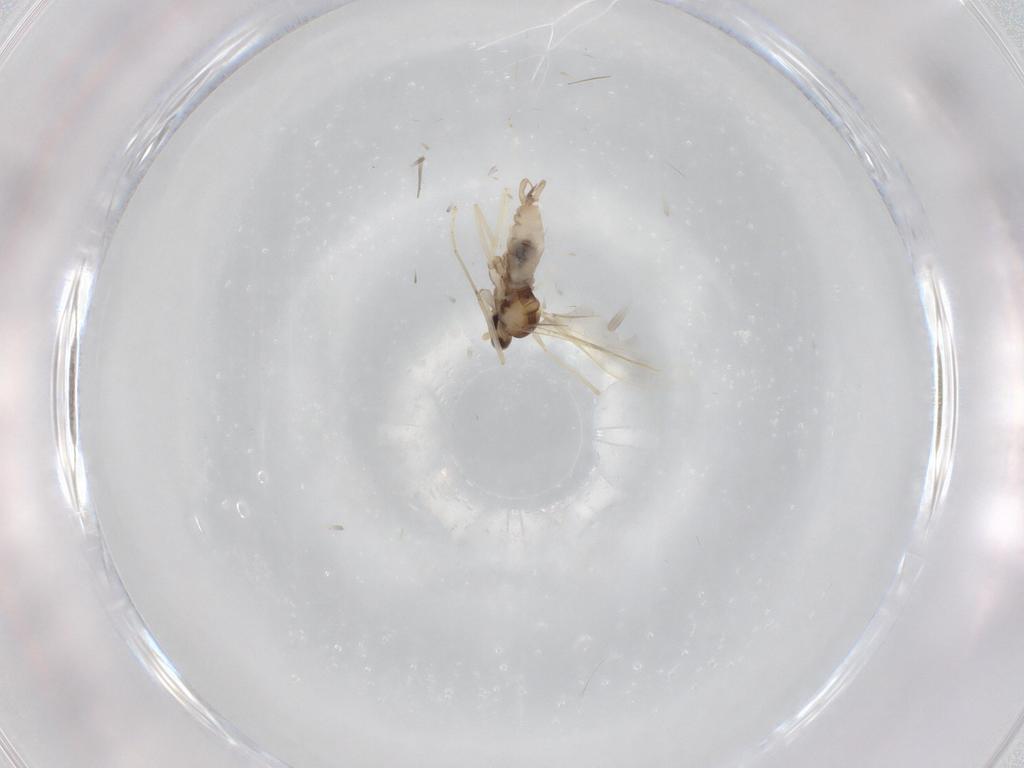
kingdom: Animalia
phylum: Arthropoda
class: Insecta
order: Diptera
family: Cecidomyiidae
